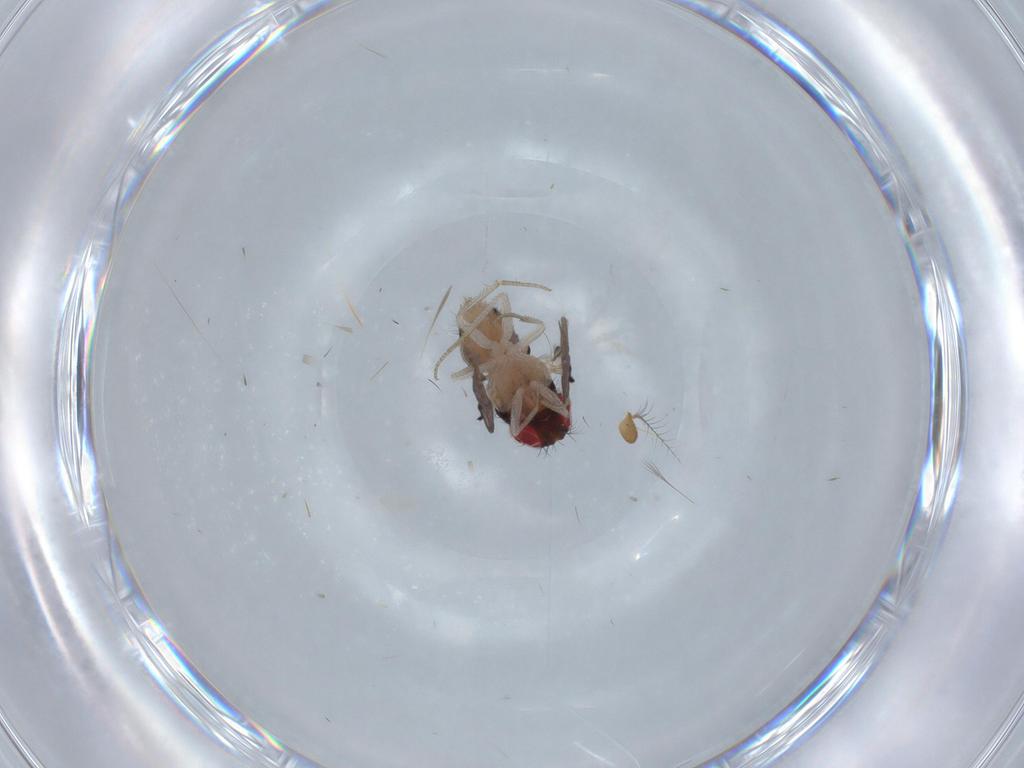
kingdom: Animalia
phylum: Arthropoda
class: Insecta
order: Diptera
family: Drosophilidae
